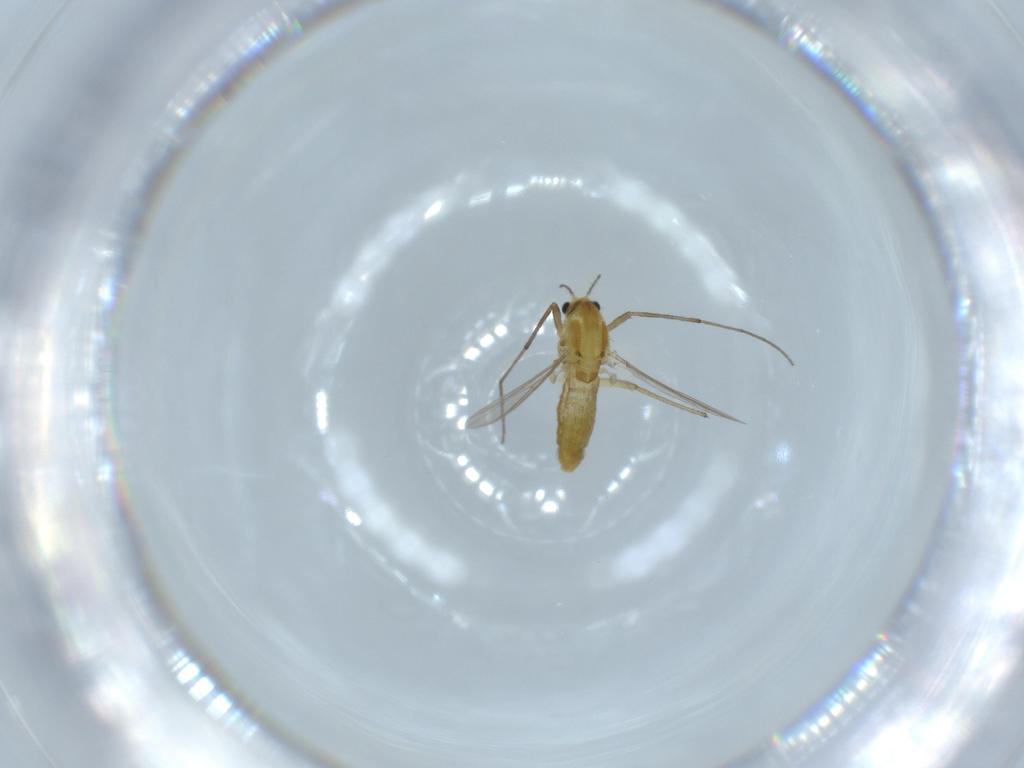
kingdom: Animalia
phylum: Arthropoda
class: Insecta
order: Diptera
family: Chironomidae
